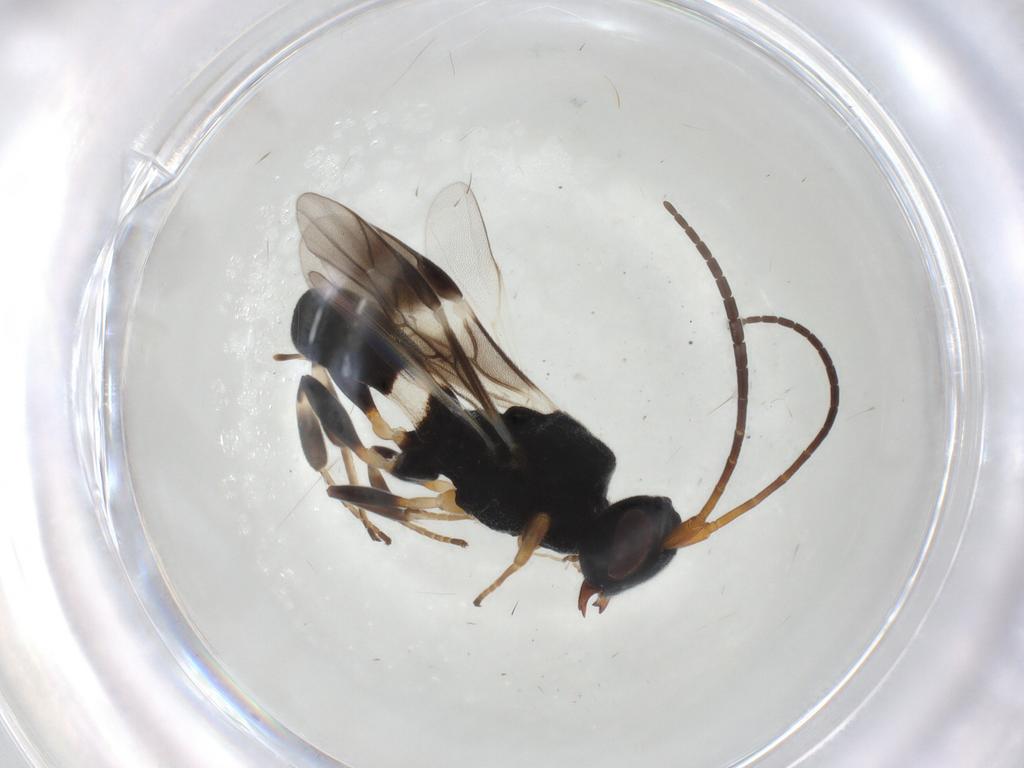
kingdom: Animalia
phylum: Arthropoda
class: Insecta
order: Hymenoptera
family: Braconidae
